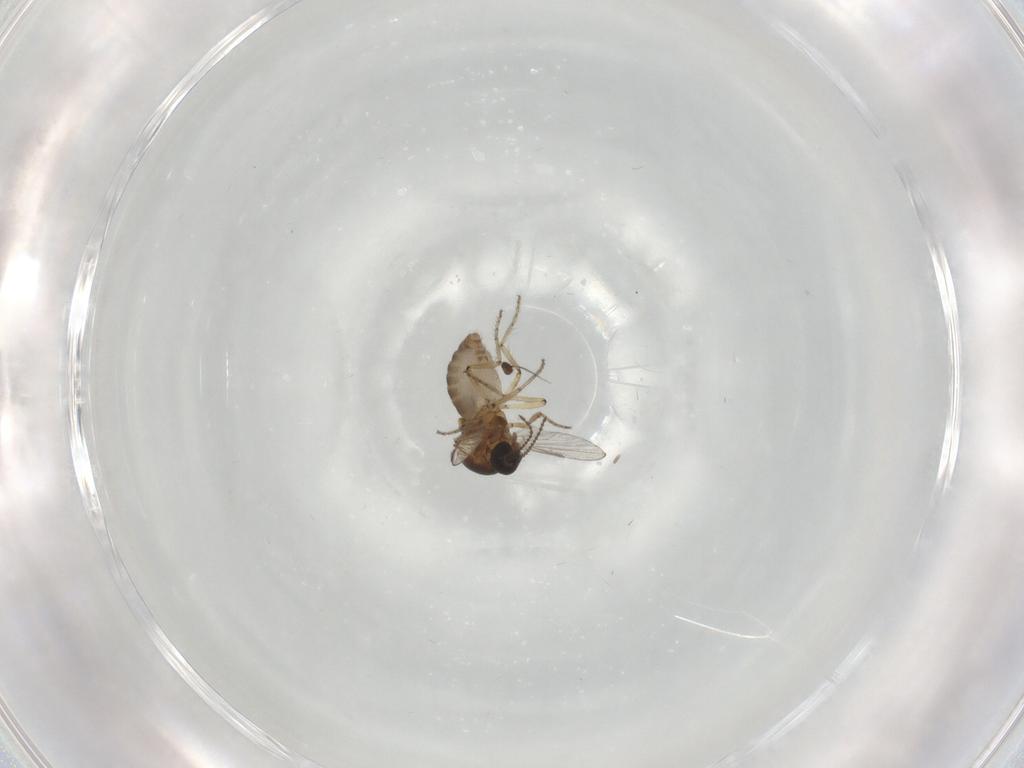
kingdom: Animalia
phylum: Arthropoda
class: Insecta
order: Diptera
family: Ceratopogonidae
